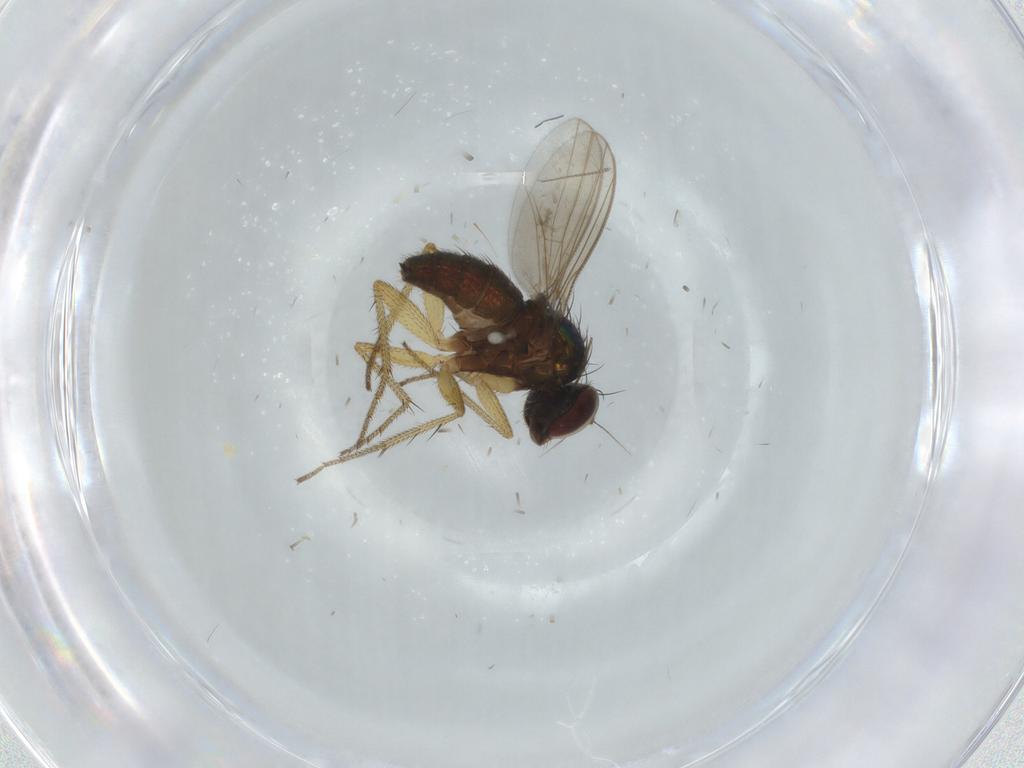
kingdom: Animalia
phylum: Arthropoda
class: Insecta
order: Diptera
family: Dolichopodidae
